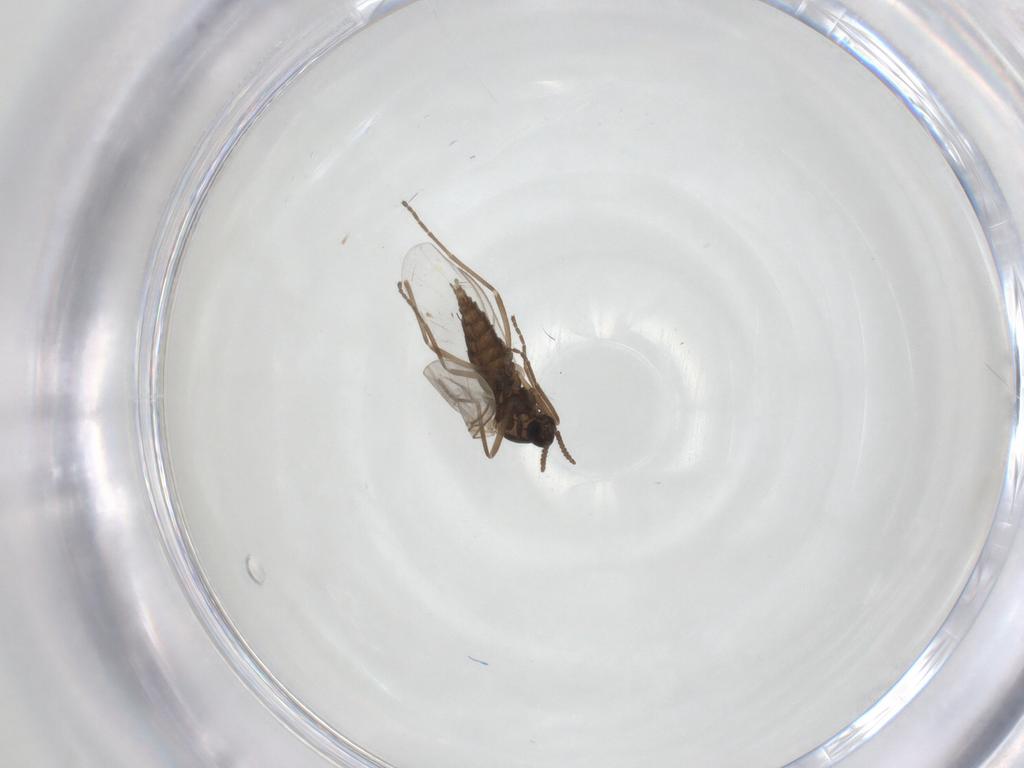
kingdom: Animalia
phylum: Arthropoda
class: Insecta
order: Diptera
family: Cecidomyiidae
